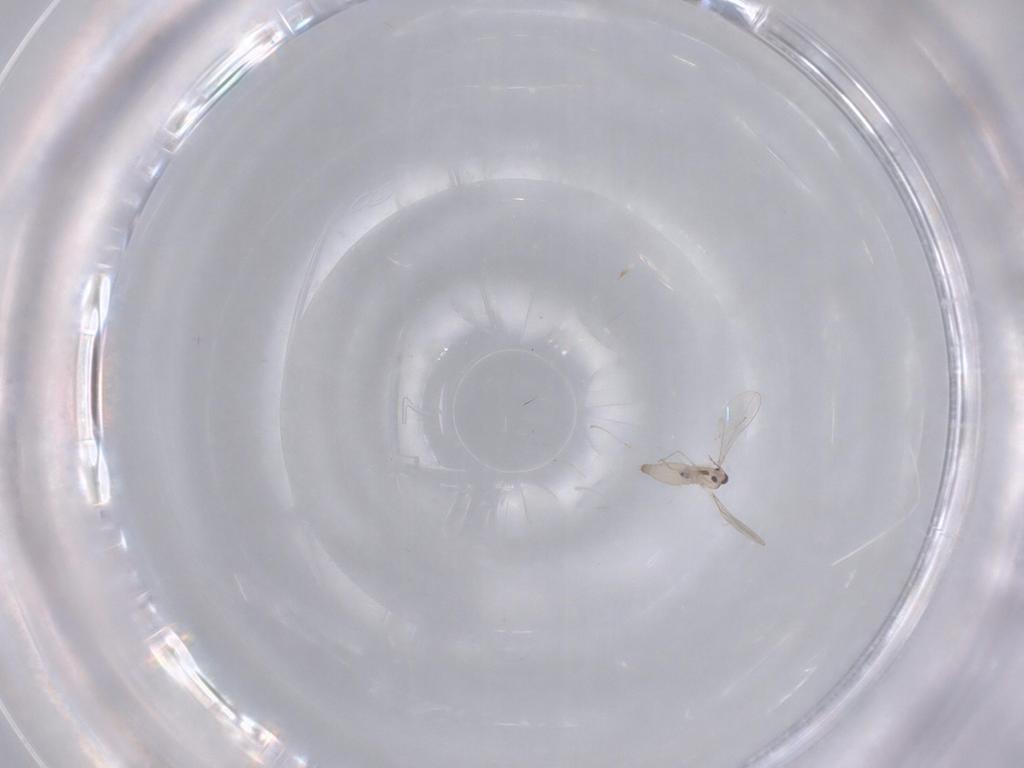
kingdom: Animalia
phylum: Arthropoda
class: Insecta
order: Diptera
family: Cecidomyiidae
